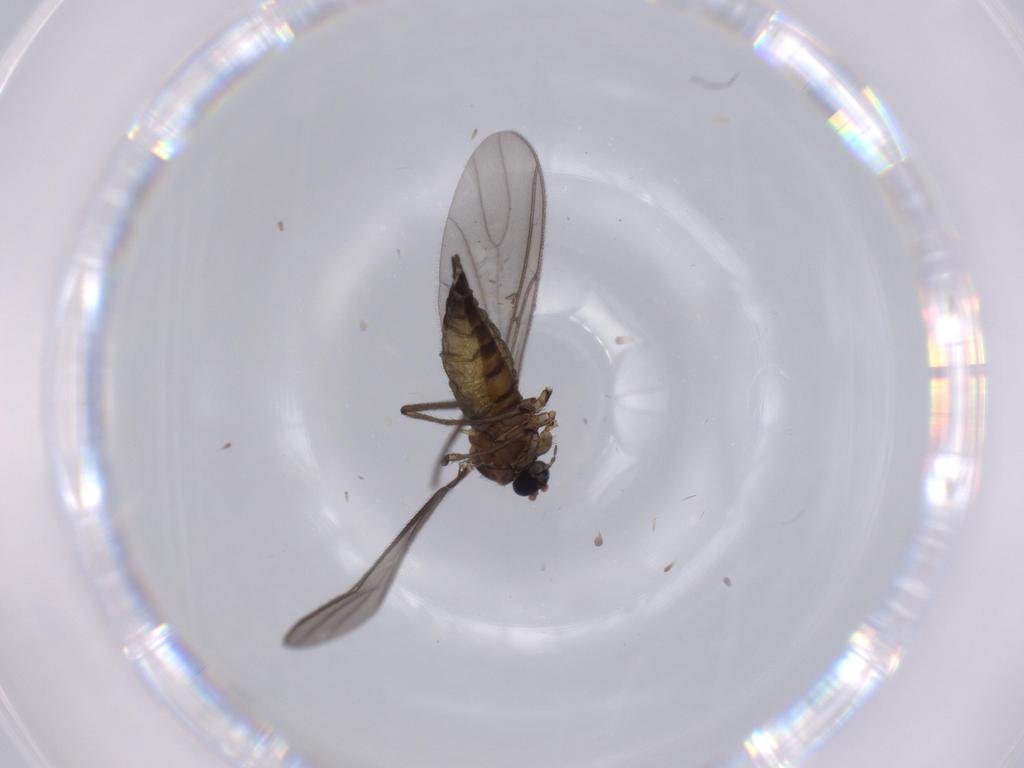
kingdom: Animalia
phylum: Arthropoda
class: Insecta
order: Diptera
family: Sciaridae
